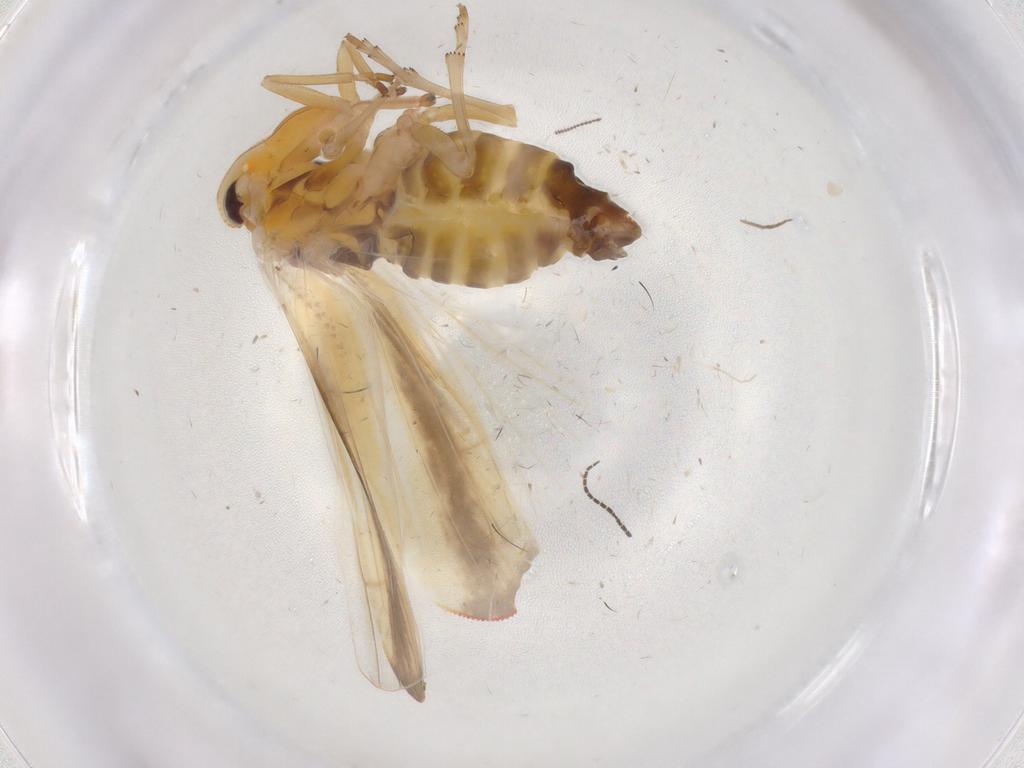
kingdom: Animalia
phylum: Arthropoda
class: Insecta
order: Hemiptera
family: Derbidae
